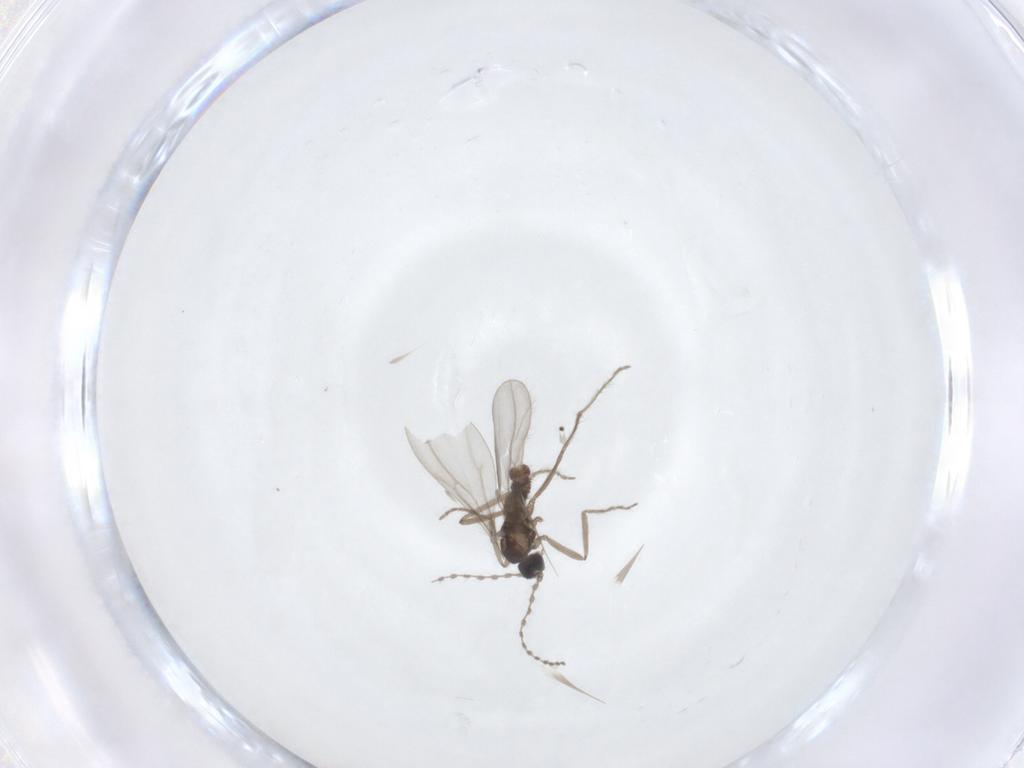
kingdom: Animalia
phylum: Arthropoda
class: Insecta
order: Diptera
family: Cecidomyiidae
